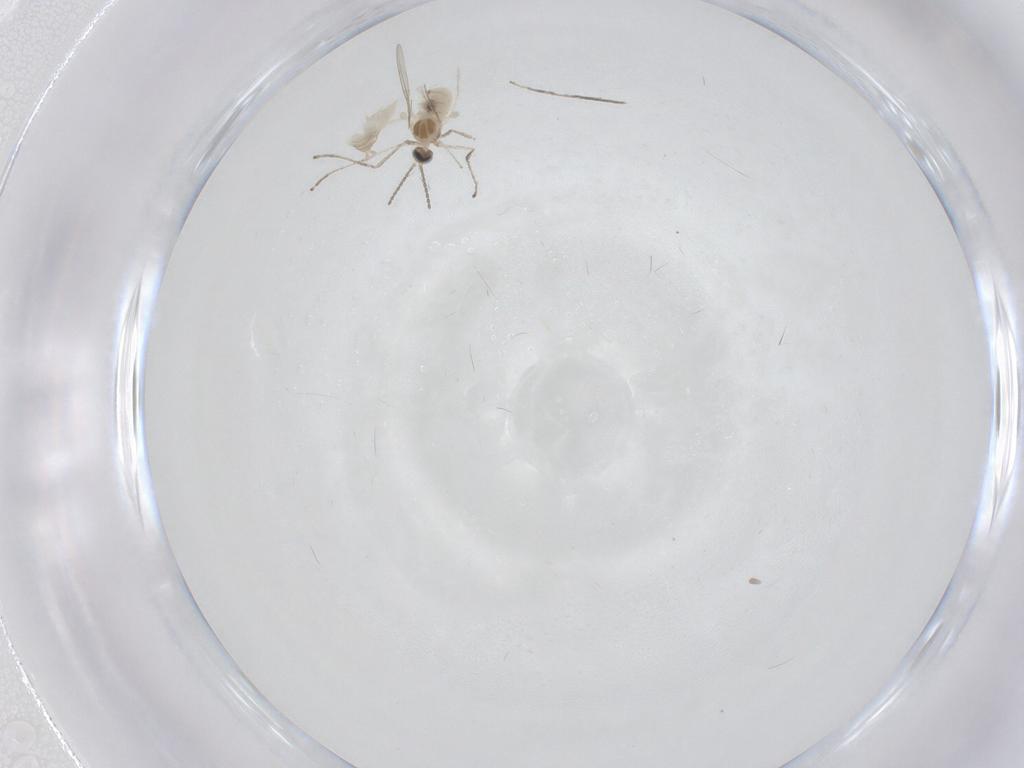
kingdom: Animalia
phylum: Arthropoda
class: Insecta
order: Diptera
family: Cecidomyiidae
